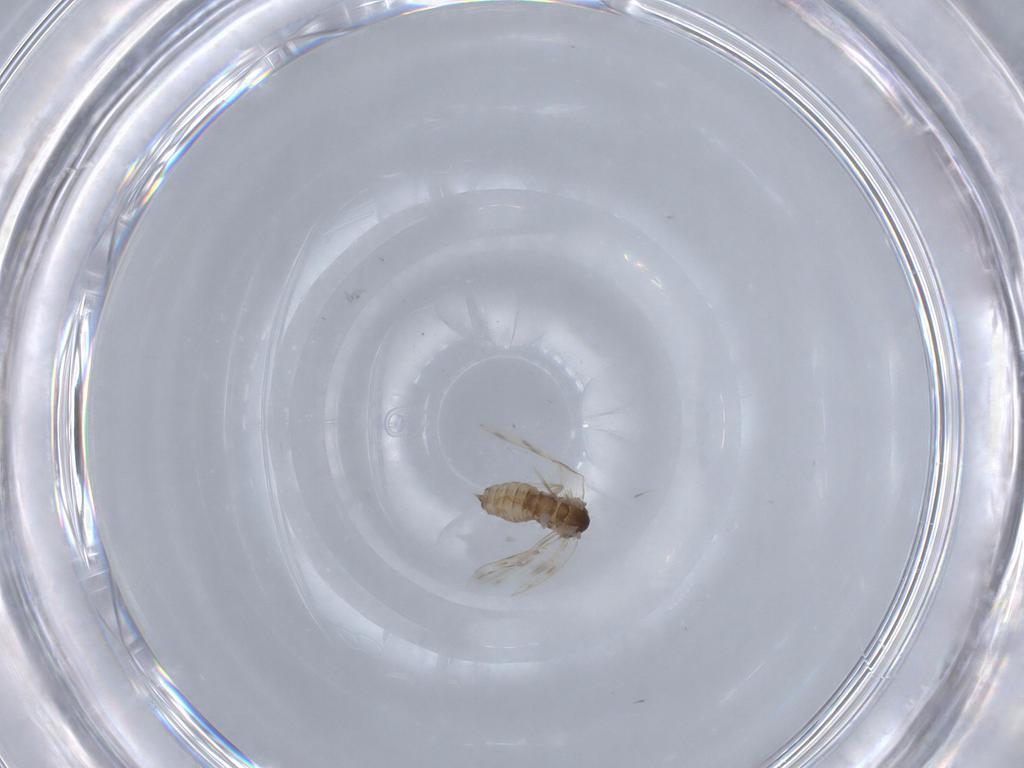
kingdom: Animalia
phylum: Arthropoda
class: Insecta
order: Diptera
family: Psychodidae
